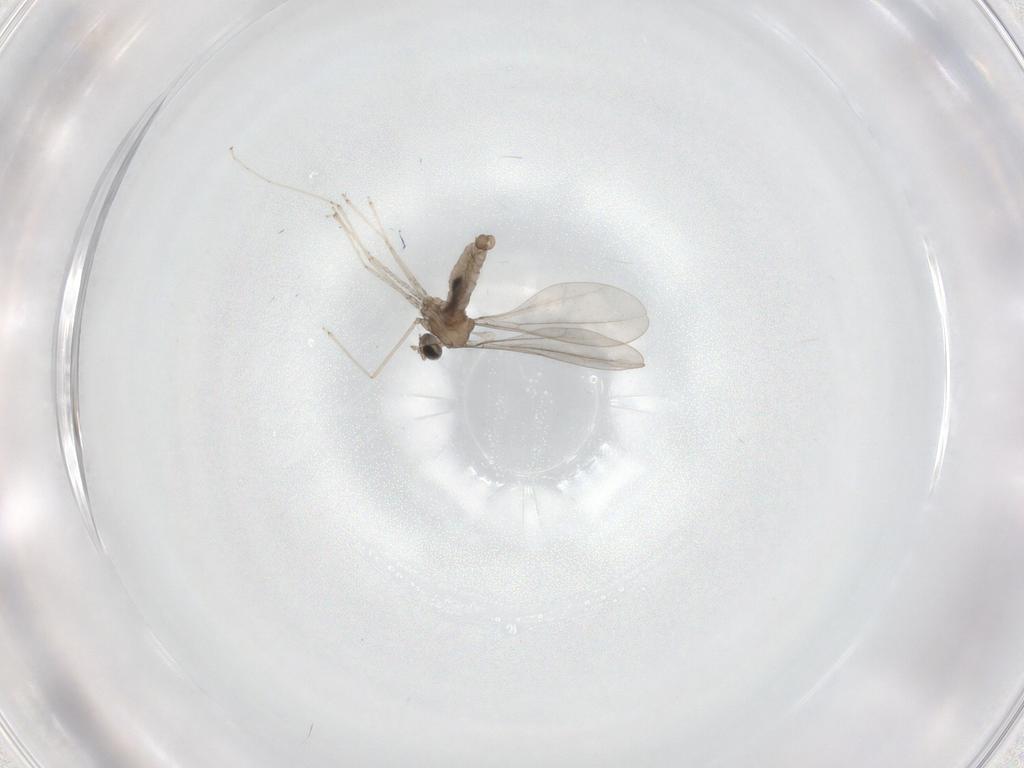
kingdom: Animalia
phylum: Arthropoda
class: Insecta
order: Diptera
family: Cecidomyiidae
